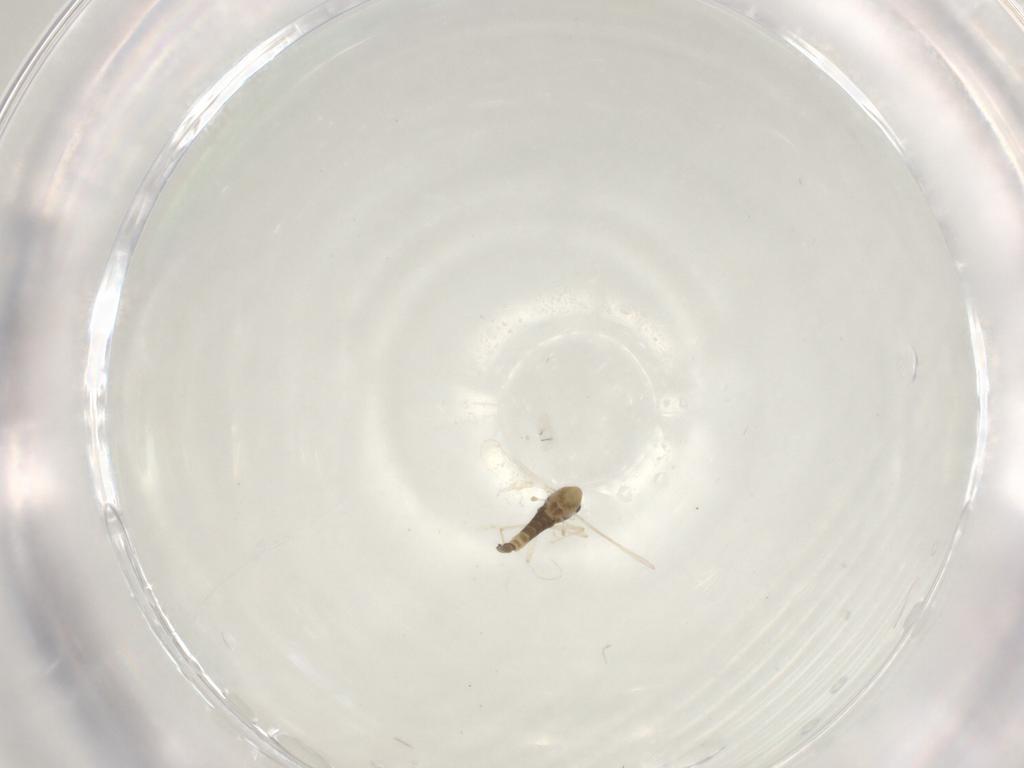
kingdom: Animalia
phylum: Arthropoda
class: Insecta
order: Diptera
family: Chironomidae
